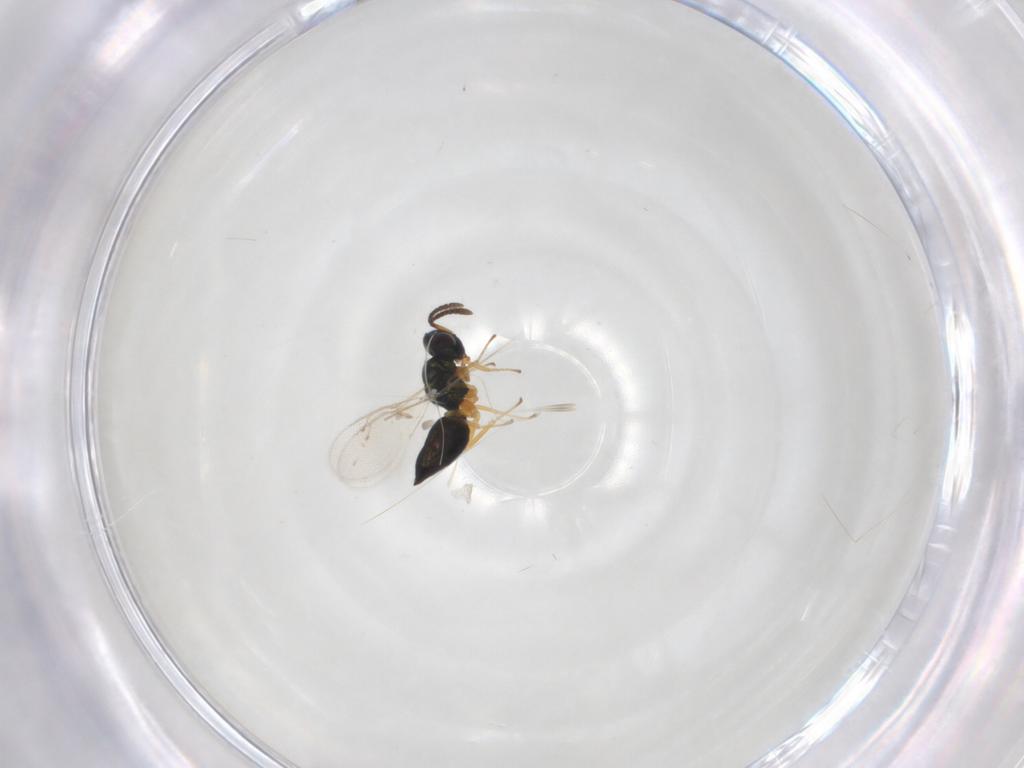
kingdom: Animalia
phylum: Arthropoda
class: Insecta
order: Hymenoptera
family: Pteromalidae
